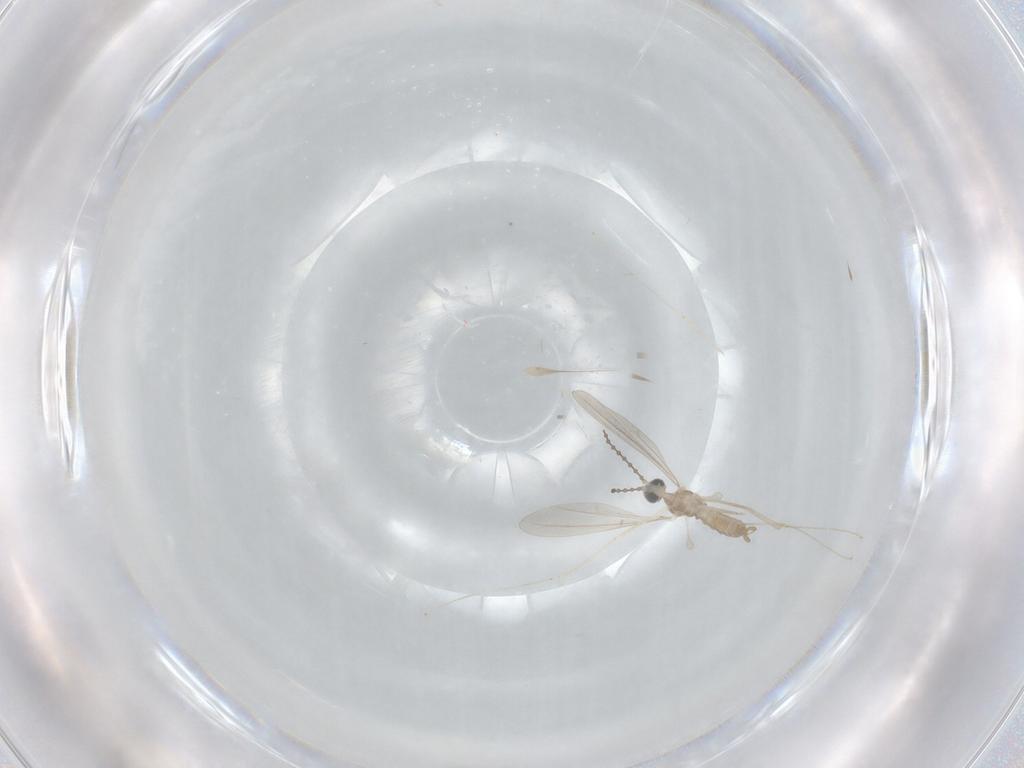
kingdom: Animalia
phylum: Arthropoda
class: Insecta
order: Diptera
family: Cecidomyiidae
